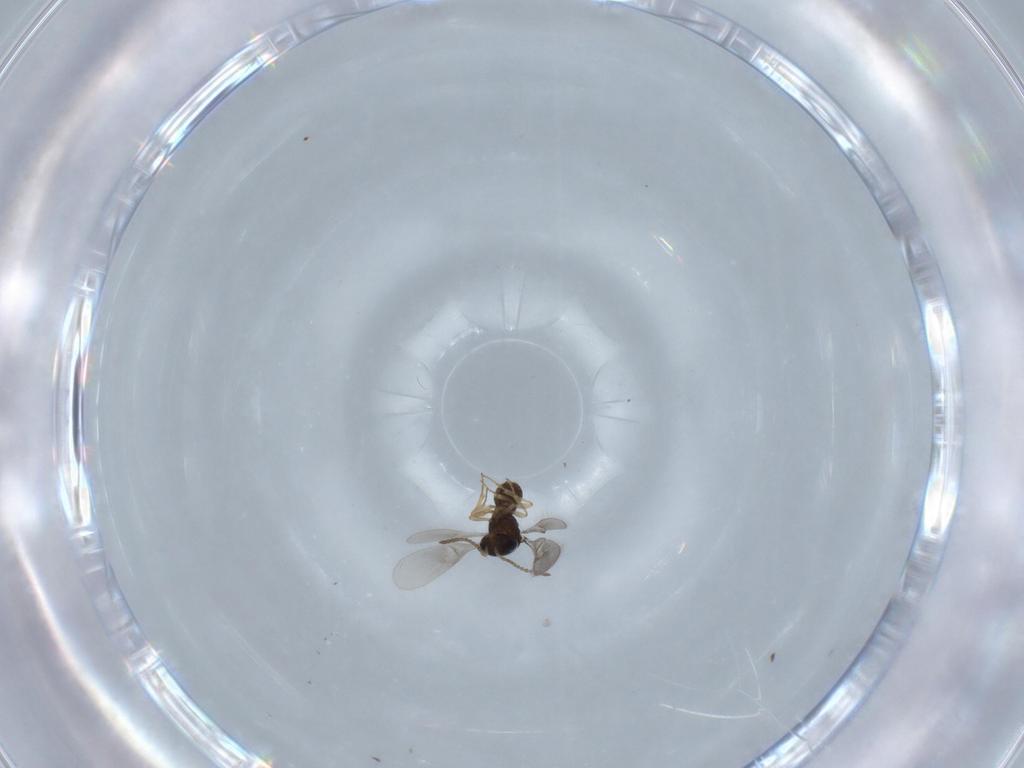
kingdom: Animalia
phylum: Arthropoda
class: Insecta
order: Hymenoptera
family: Scelionidae
